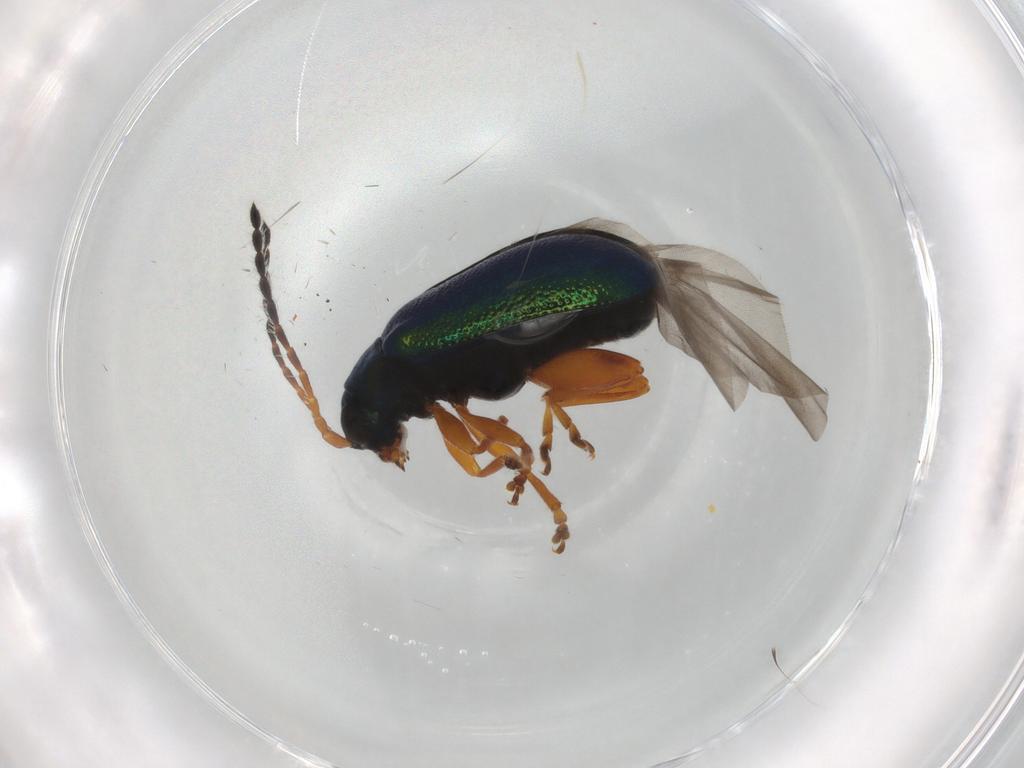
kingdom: Animalia
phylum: Arthropoda
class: Insecta
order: Coleoptera
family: Chrysomelidae
